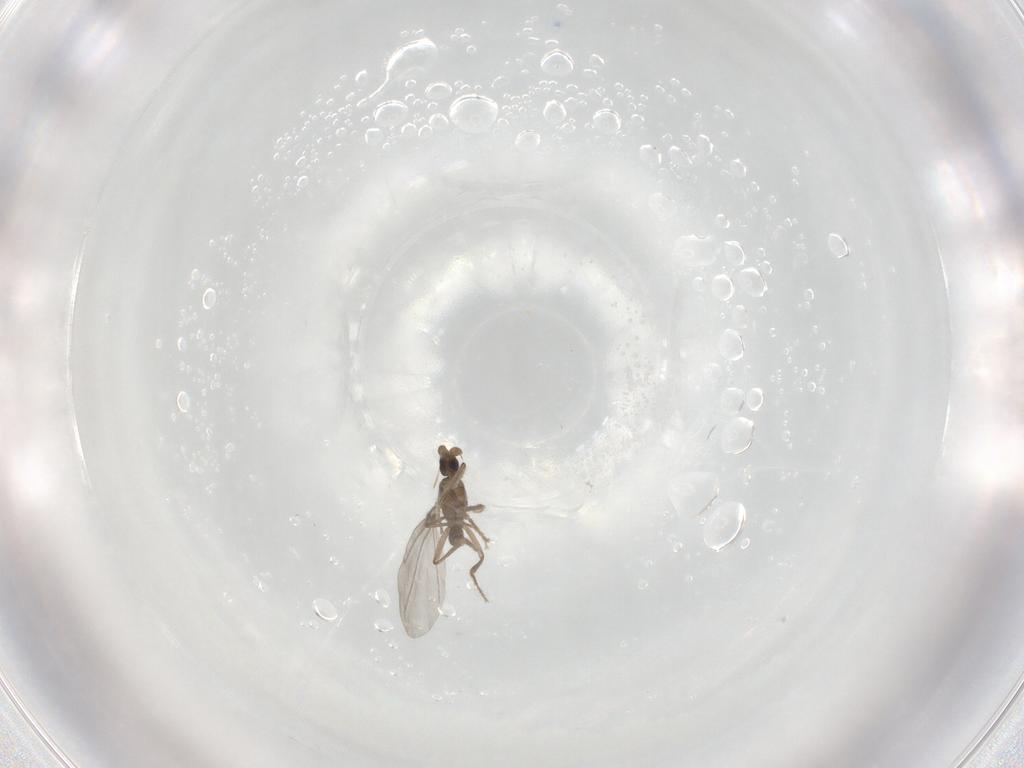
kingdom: Animalia
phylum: Arthropoda
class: Insecta
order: Diptera
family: Phoridae
